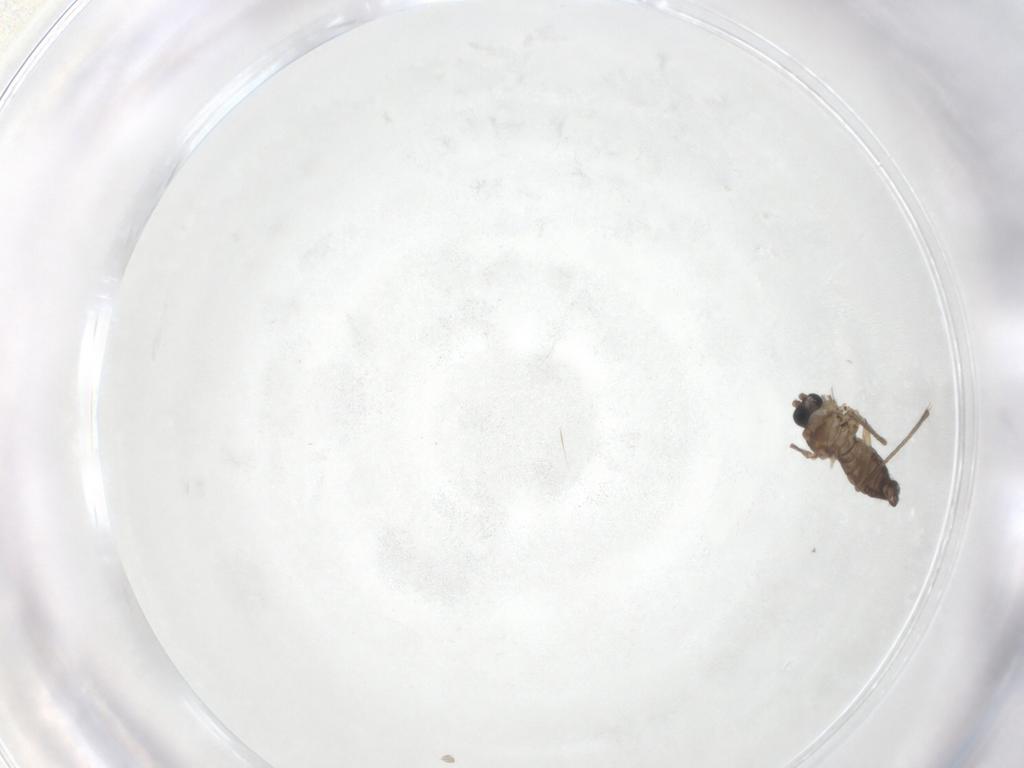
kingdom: Animalia
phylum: Arthropoda
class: Insecta
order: Diptera
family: Sciaridae
